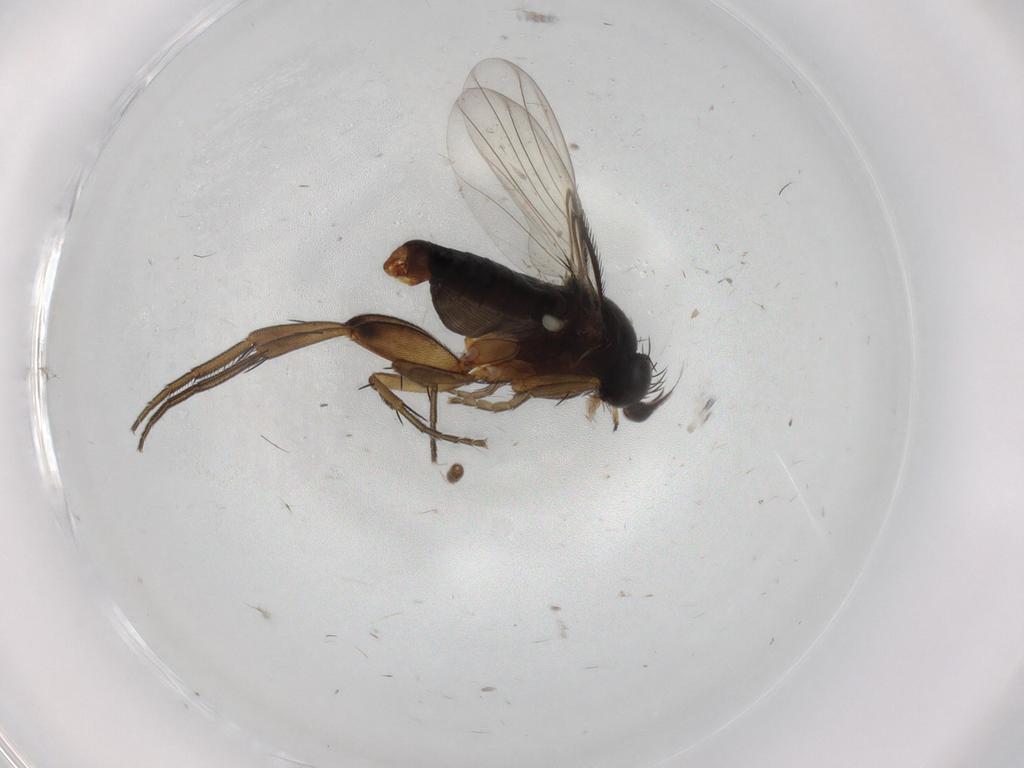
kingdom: Animalia
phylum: Arthropoda
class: Insecta
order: Diptera
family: Phoridae
